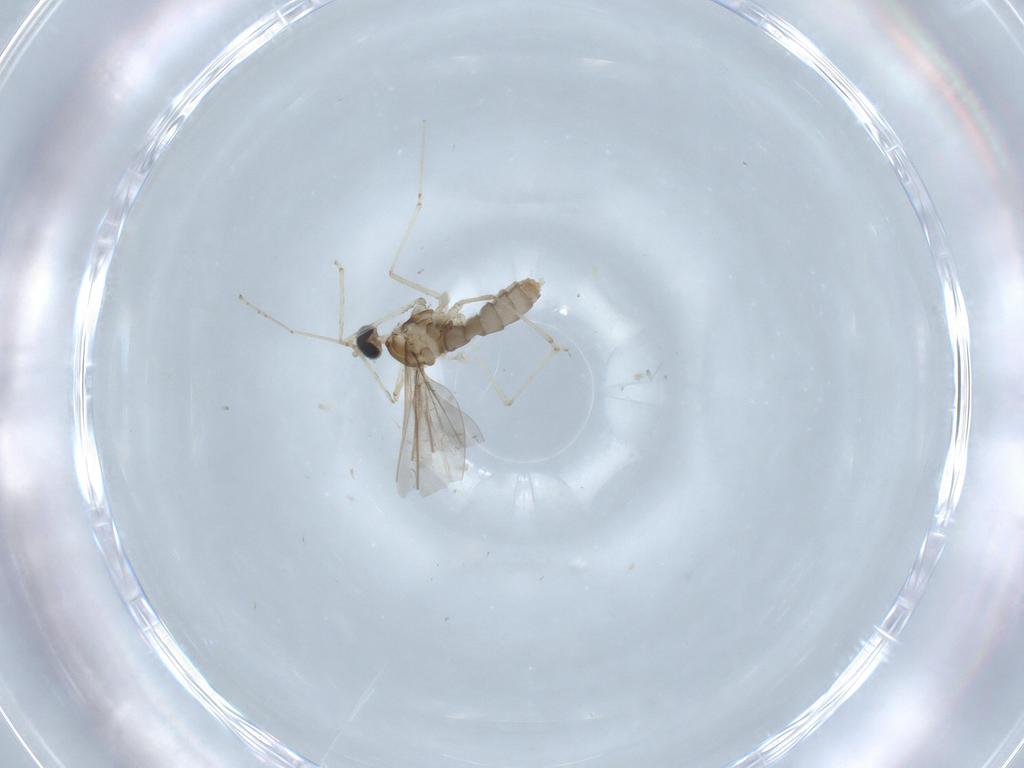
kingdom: Animalia
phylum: Arthropoda
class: Insecta
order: Diptera
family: Cecidomyiidae
